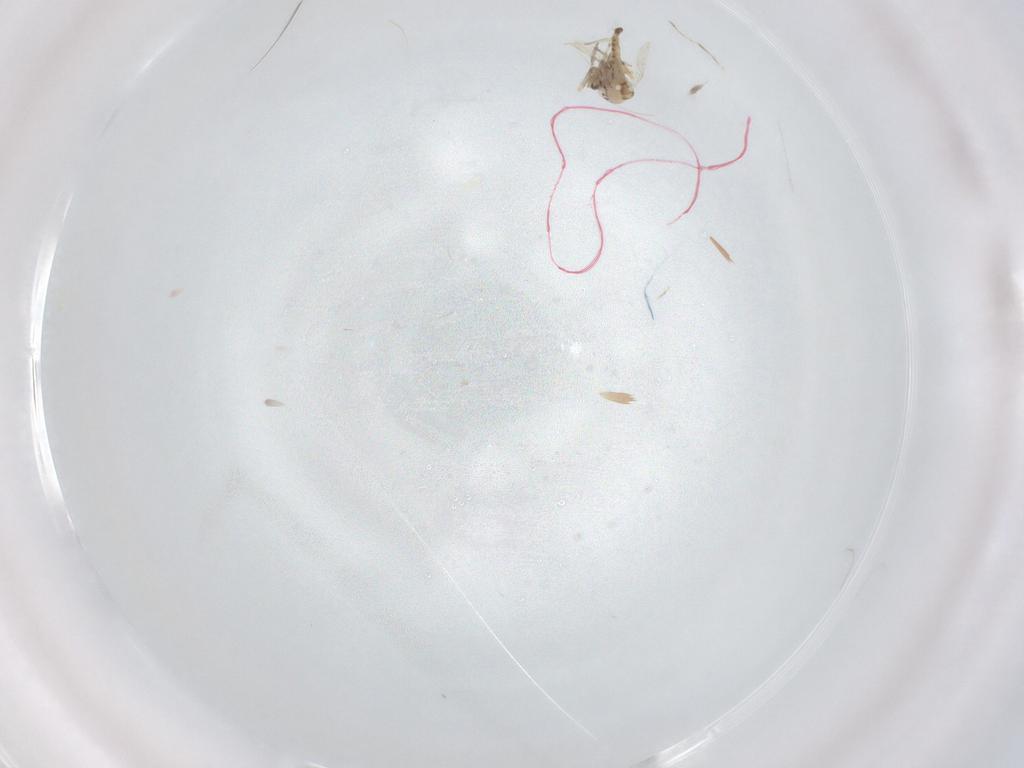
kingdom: Animalia
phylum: Arthropoda
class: Insecta
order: Diptera
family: Ceratopogonidae
